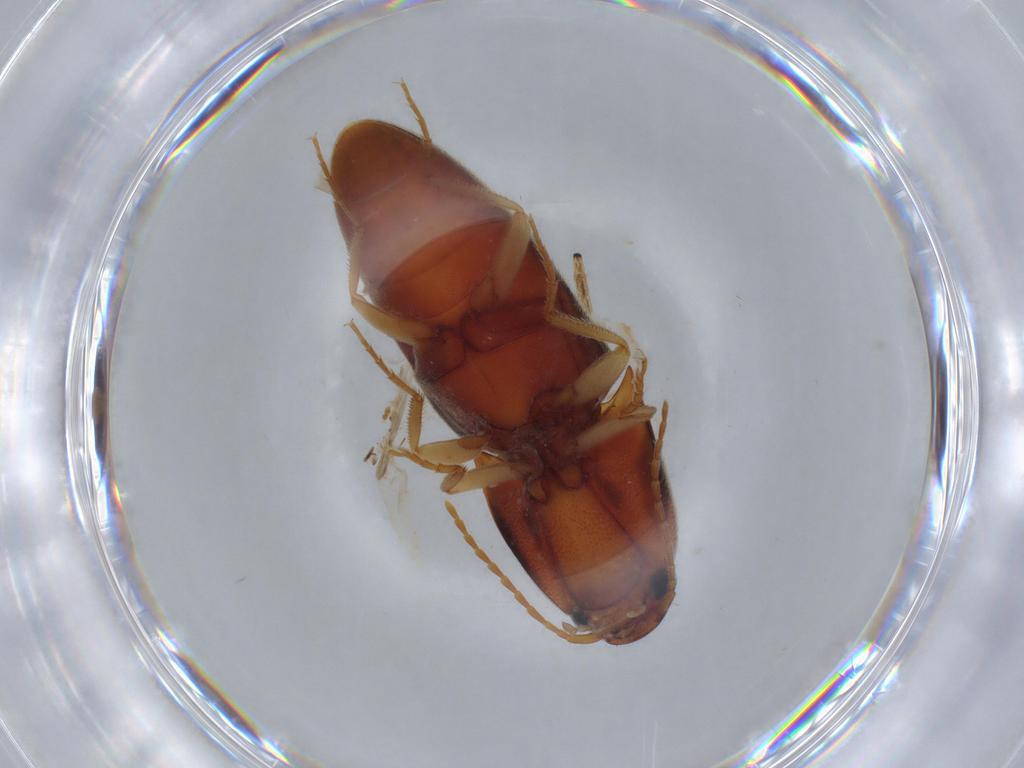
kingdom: Animalia
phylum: Arthropoda
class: Insecta
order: Coleoptera
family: Elateridae
